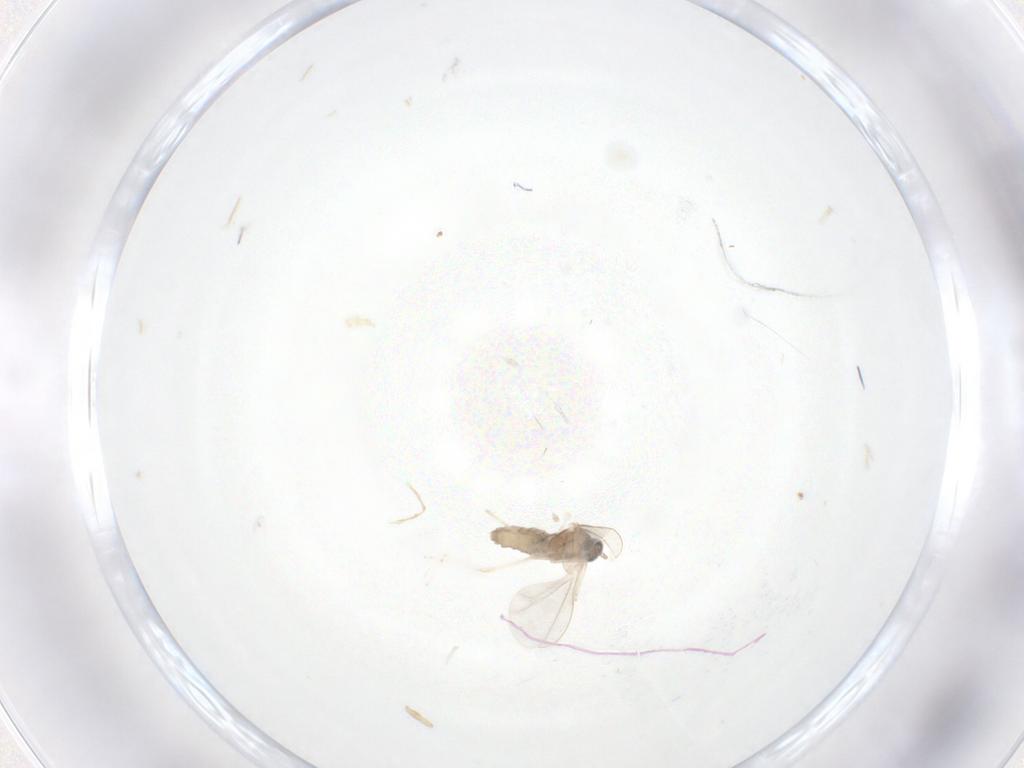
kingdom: Animalia
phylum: Arthropoda
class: Insecta
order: Diptera
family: Cecidomyiidae
